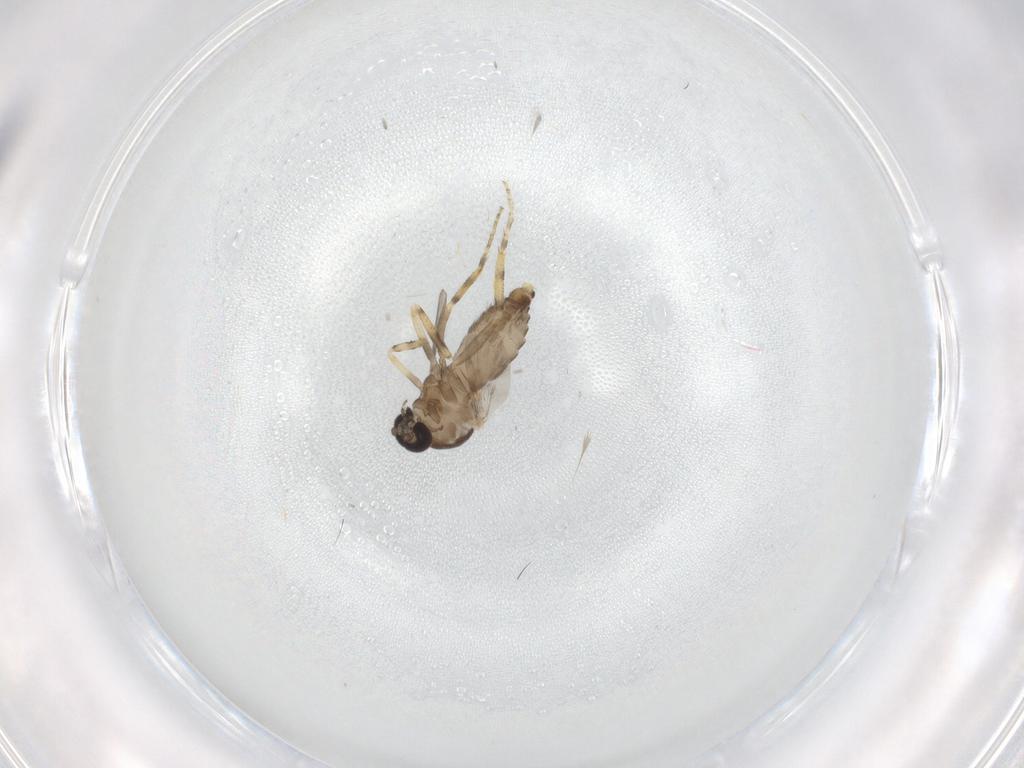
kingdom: Animalia
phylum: Arthropoda
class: Insecta
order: Diptera
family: Ceratopogonidae
